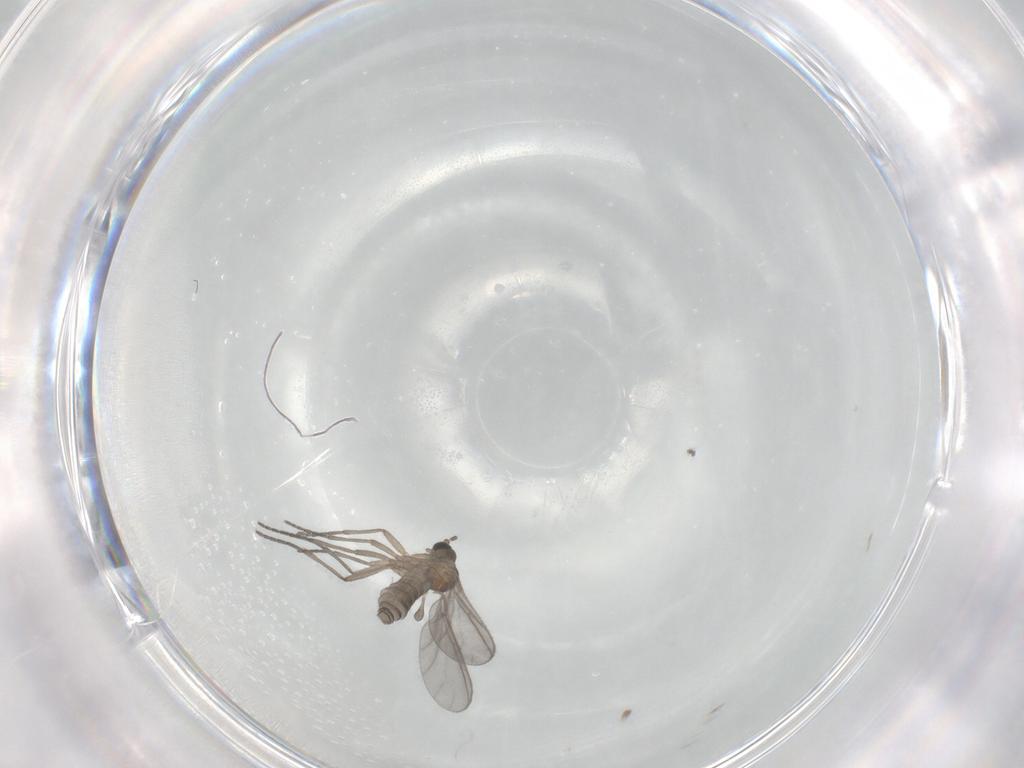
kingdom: Animalia
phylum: Arthropoda
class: Insecta
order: Diptera
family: Sciaridae
